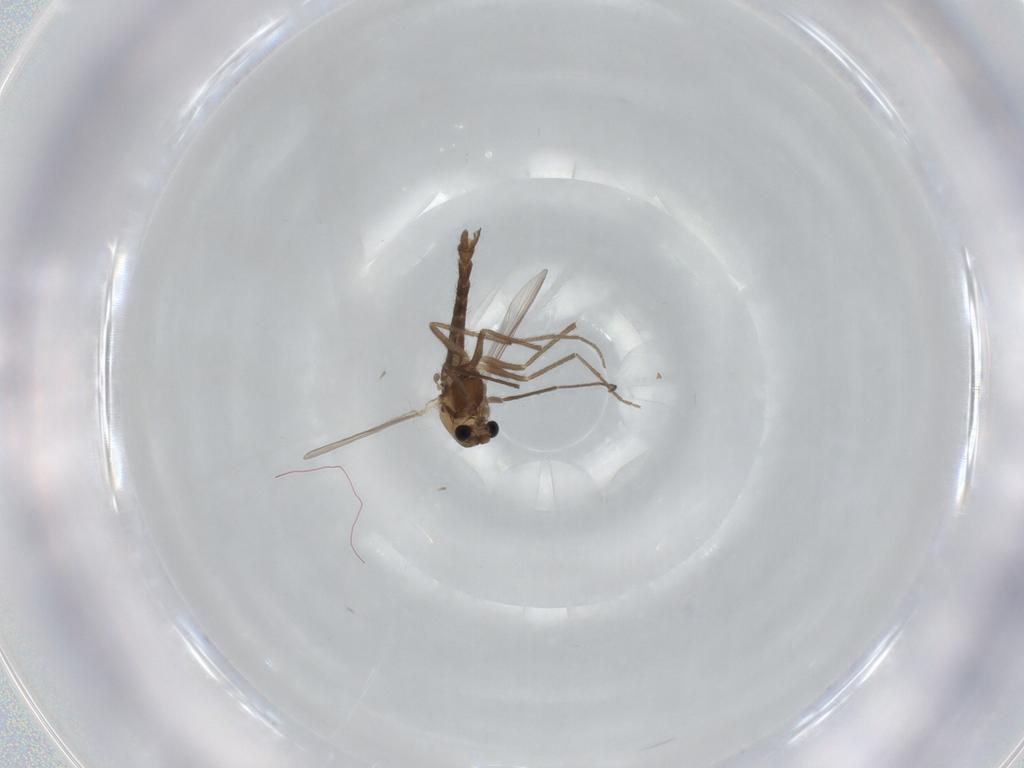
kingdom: Animalia
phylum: Arthropoda
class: Insecta
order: Diptera
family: Chironomidae
